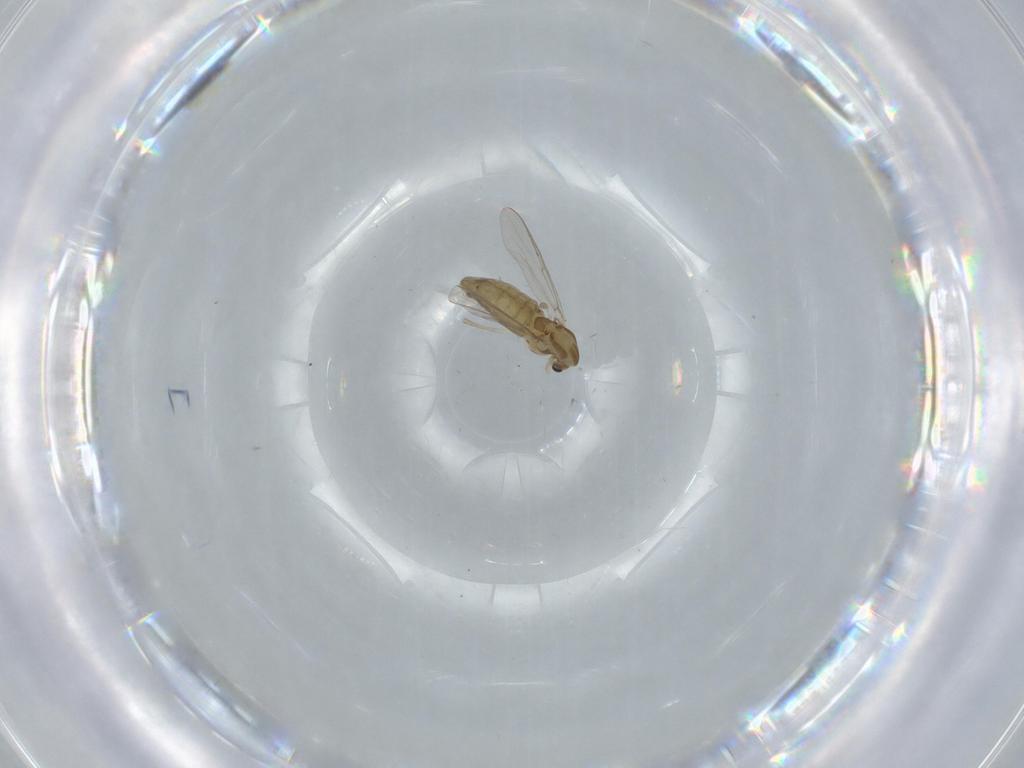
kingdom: Animalia
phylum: Arthropoda
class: Insecta
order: Diptera
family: Chironomidae
